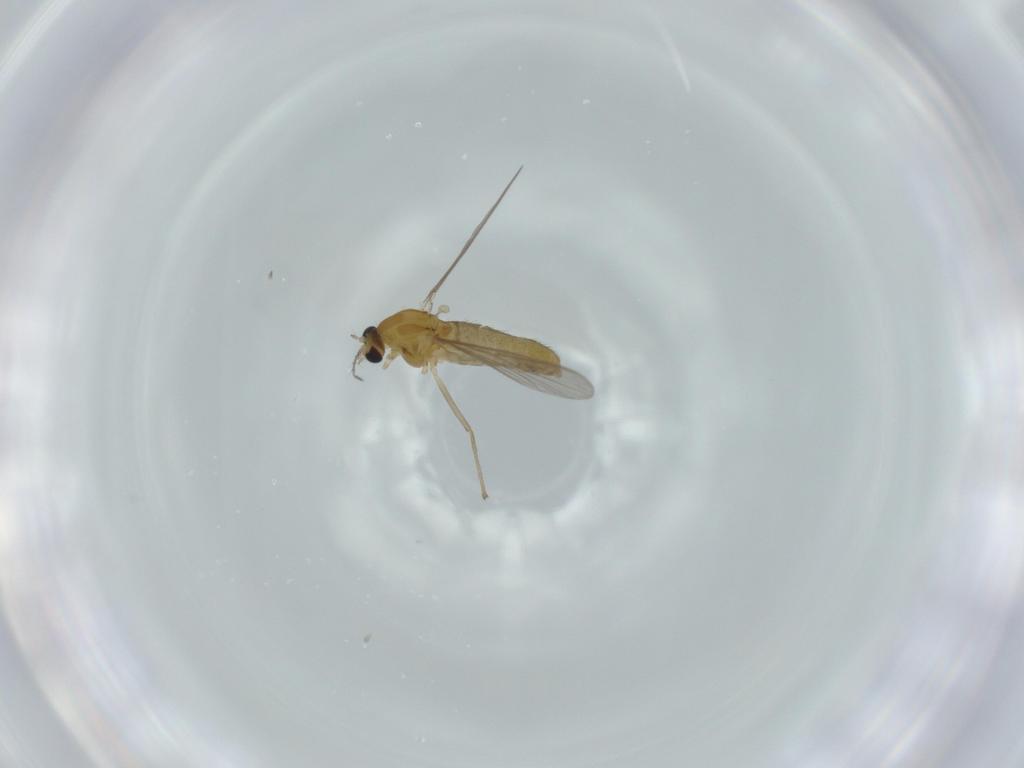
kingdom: Animalia
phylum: Arthropoda
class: Insecta
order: Diptera
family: Chironomidae
